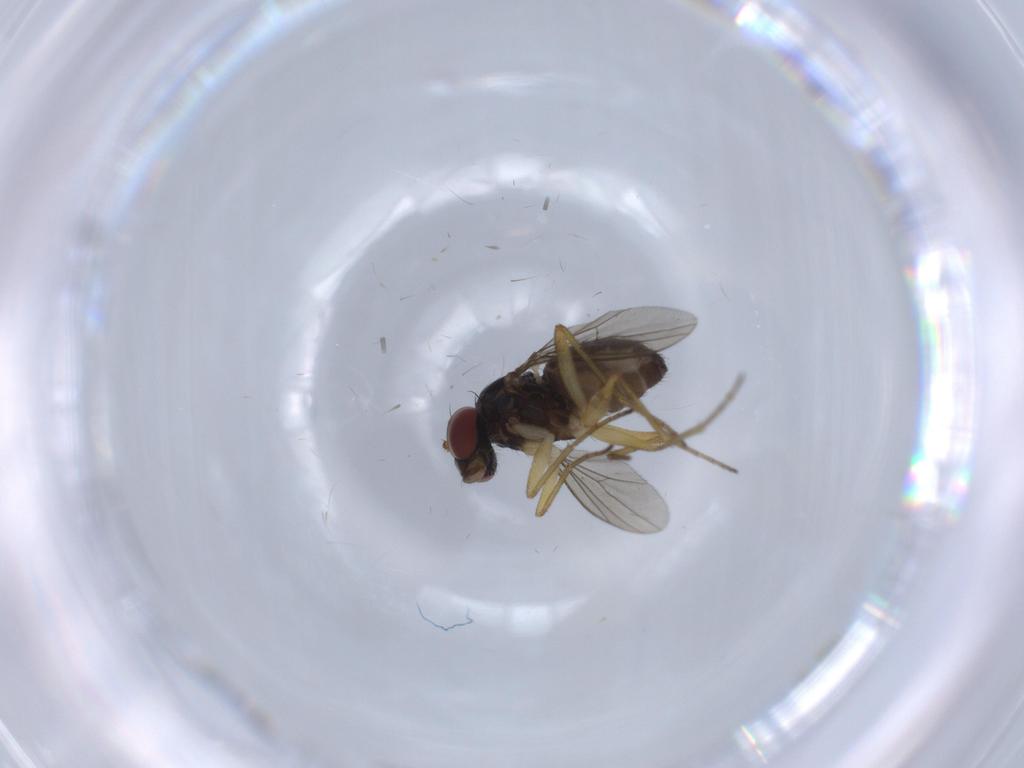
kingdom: Animalia
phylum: Arthropoda
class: Insecta
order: Diptera
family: Dolichopodidae
